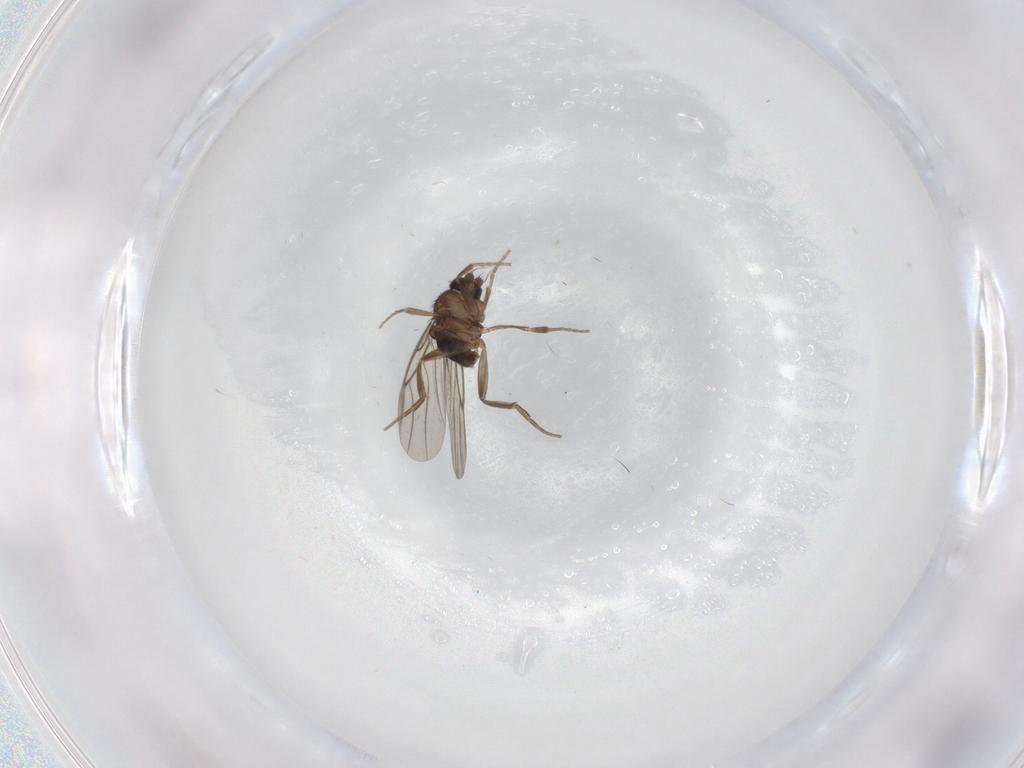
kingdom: Animalia
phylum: Arthropoda
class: Insecta
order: Diptera
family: Phoridae
